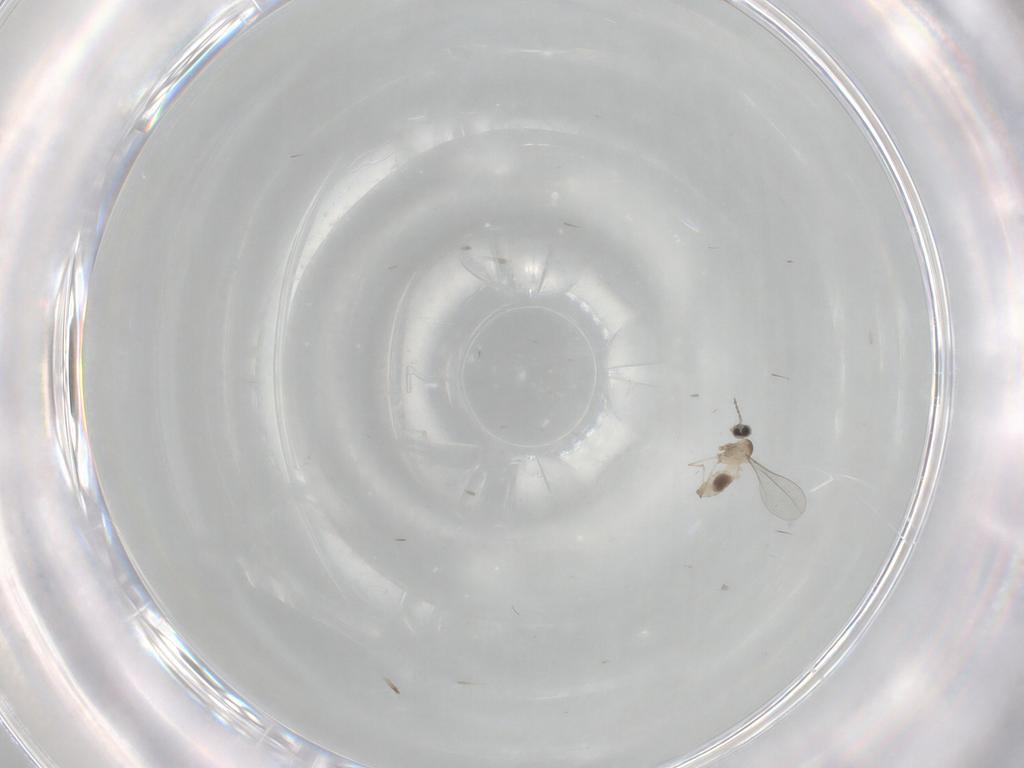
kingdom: Animalia
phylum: Arthropoda
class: Insecta
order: Diptera
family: Cecidomyiidae
